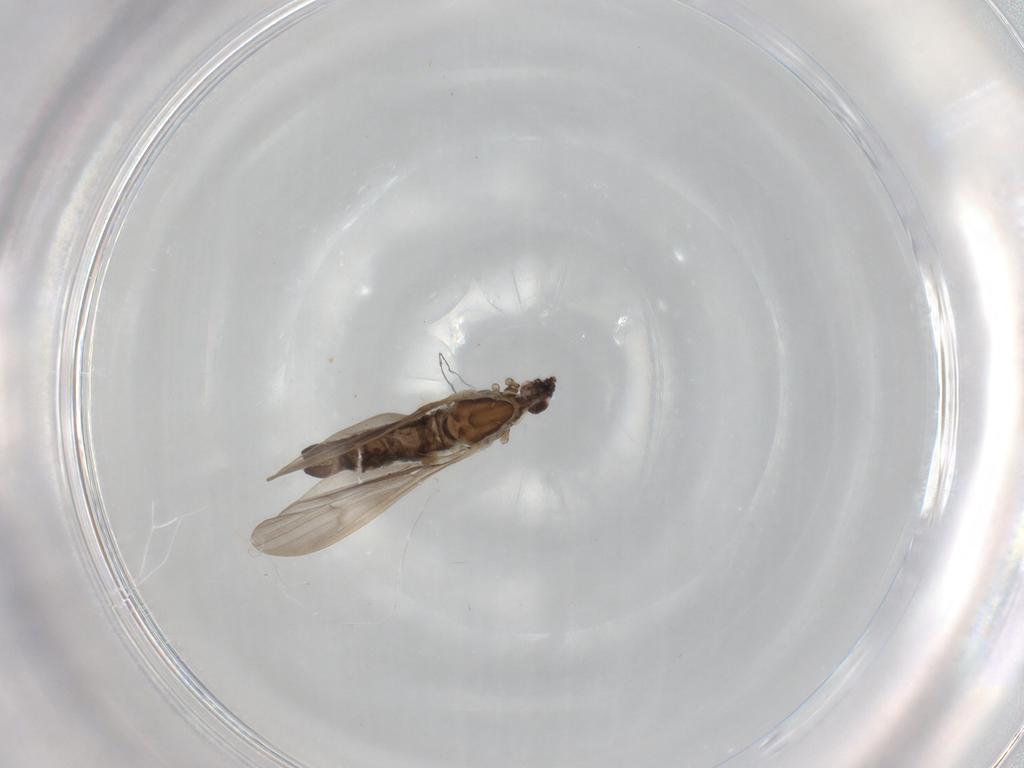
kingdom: Animalia
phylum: Arthropoda
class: Insecta
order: Diptera
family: Limoniidae
